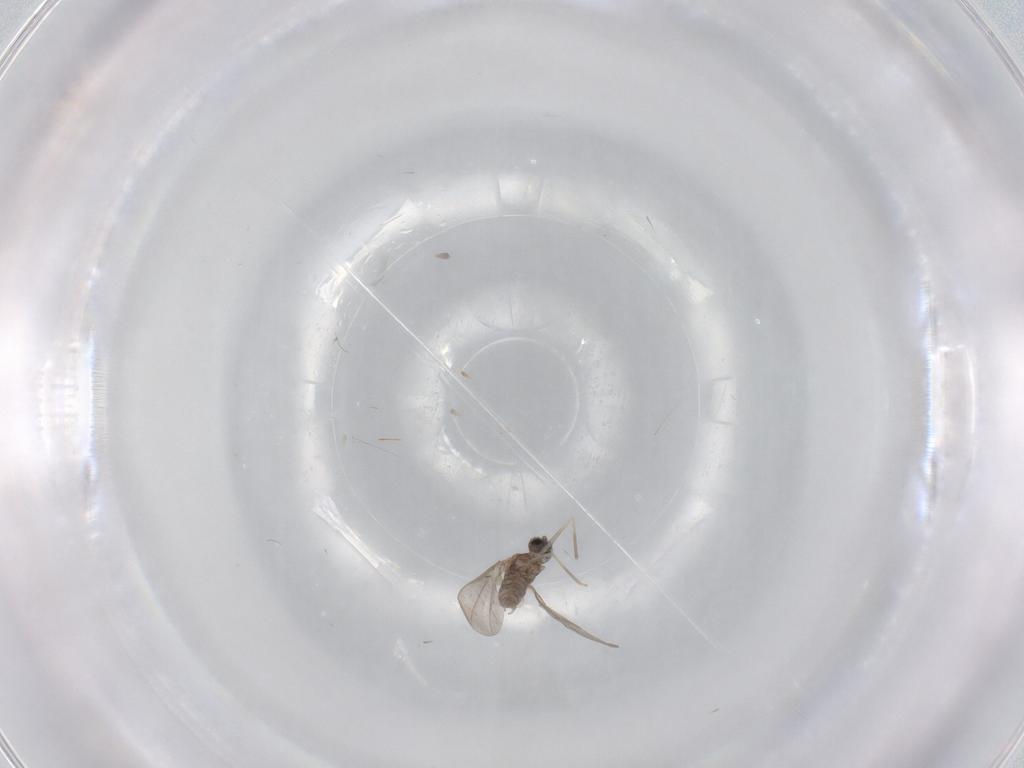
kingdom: Animalia
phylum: Arthropoda
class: Insecta
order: Diptera
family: Cecidomyiidae
